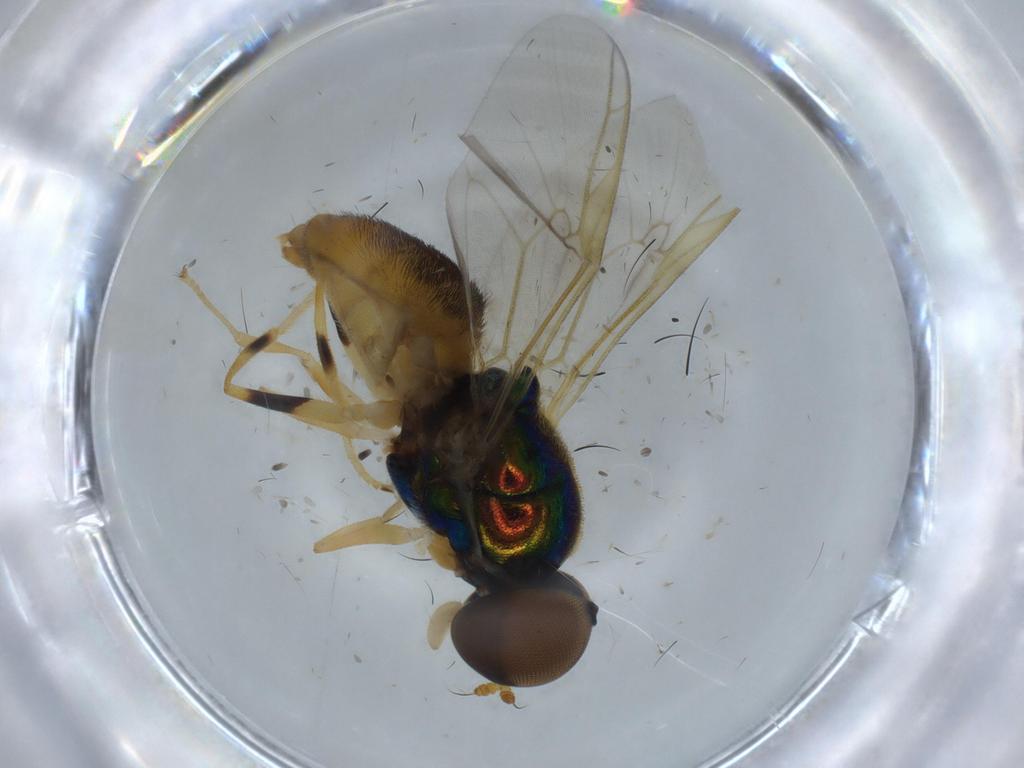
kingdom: Animalia
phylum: Arthropoda
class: Insecta
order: Diptera
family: Stratiomyidae
